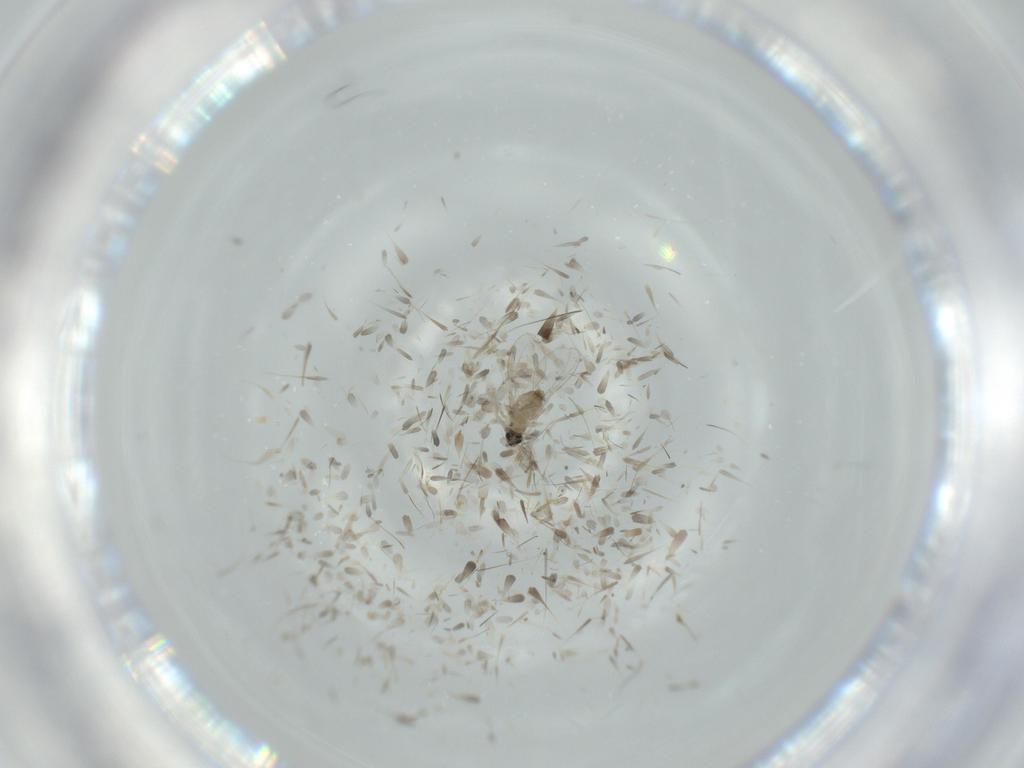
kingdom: Animalia
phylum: Arthropoda
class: Insecta
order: Diptera
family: Phoridae
